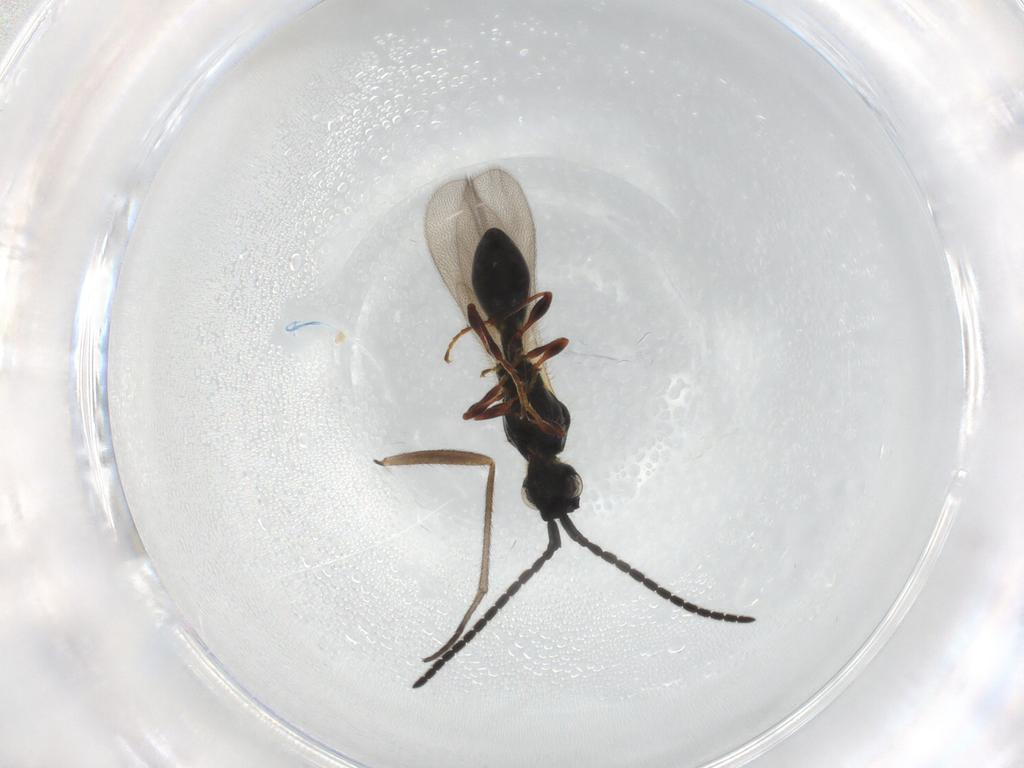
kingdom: Animalia
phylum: Arthropoda
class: Insecta
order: Hymenoptera
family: Diapriidae
